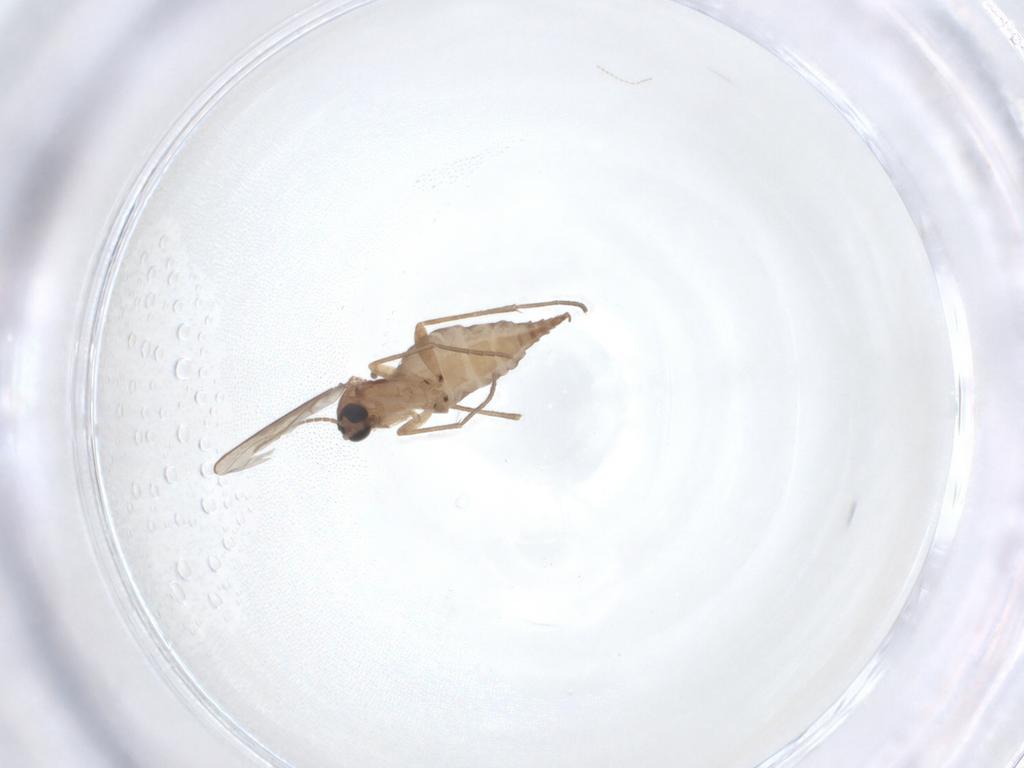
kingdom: Animalia
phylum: Arthropoda
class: Insecta
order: Diptera
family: Sciaridae
